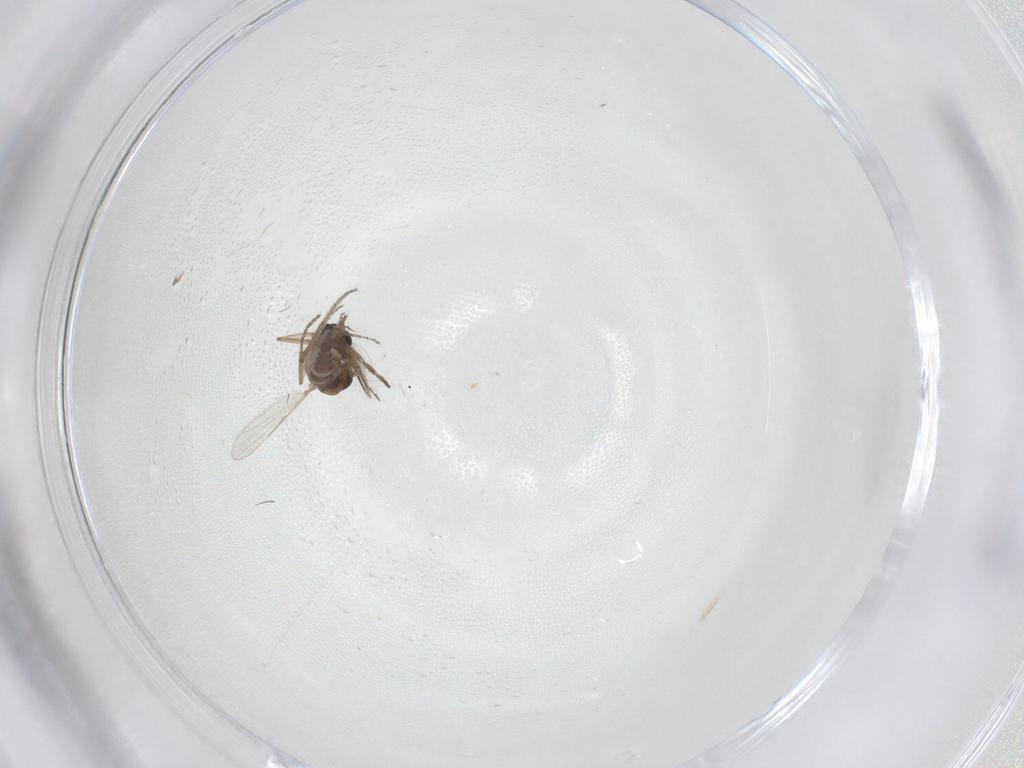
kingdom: Animalia
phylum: Arthropoda
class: Insecta
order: Diptera
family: Ceratopogonidae
